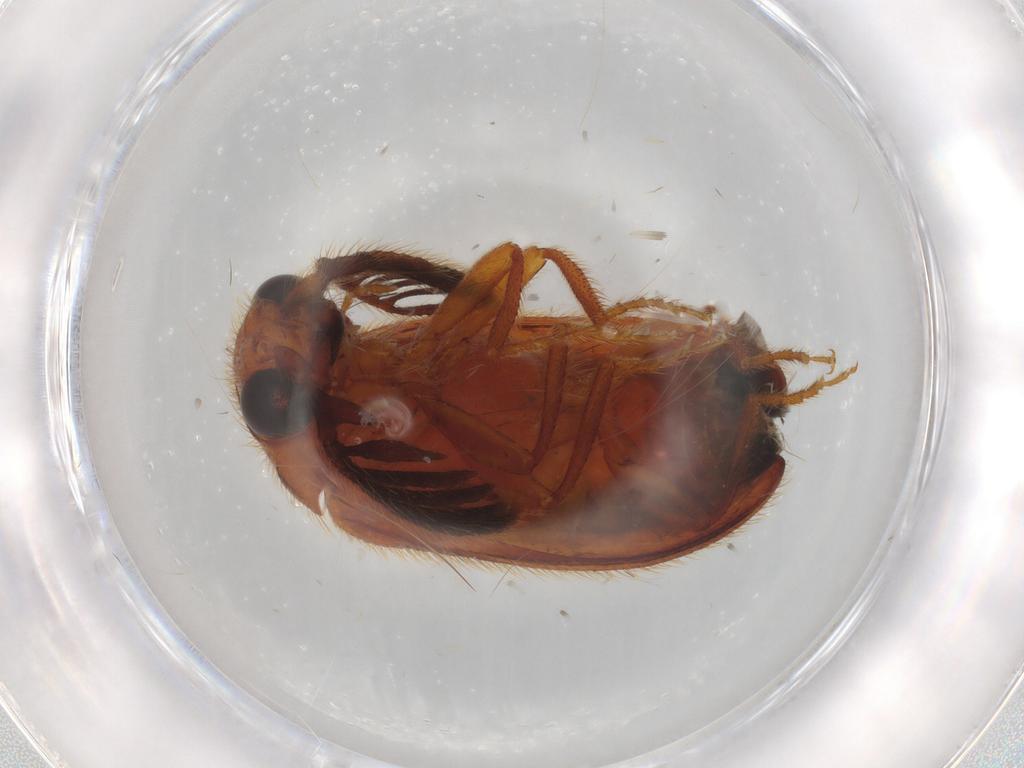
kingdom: Animalia
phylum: Arthropoda
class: Insecta
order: Coleoptera
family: Elateridae
